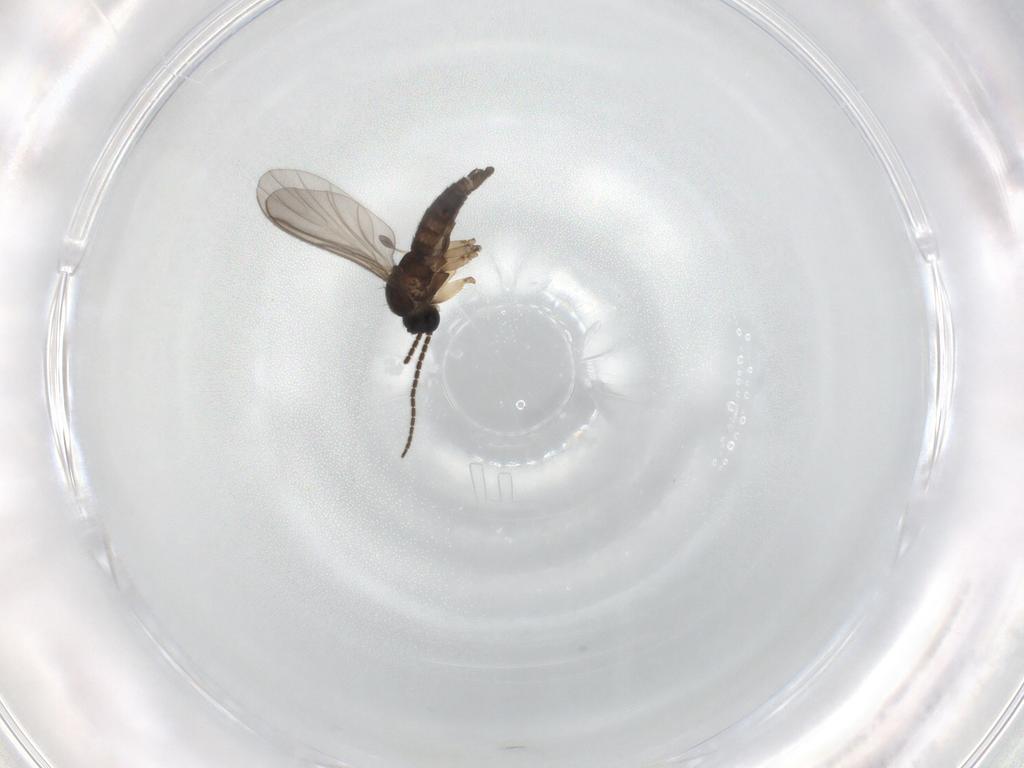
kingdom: Animalia
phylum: Arthropoda
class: Insecta
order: Diptera
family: Sciaridae
